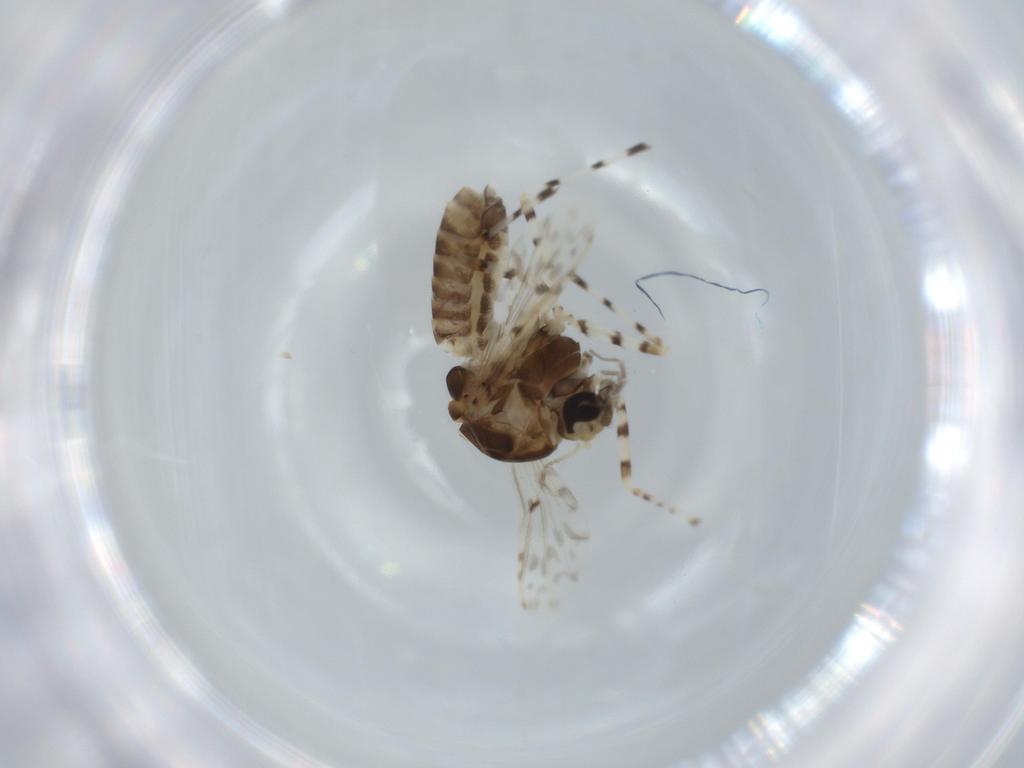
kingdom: Animalia
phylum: Arthropoda
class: Insecta
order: Diptera
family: Chironomidae
